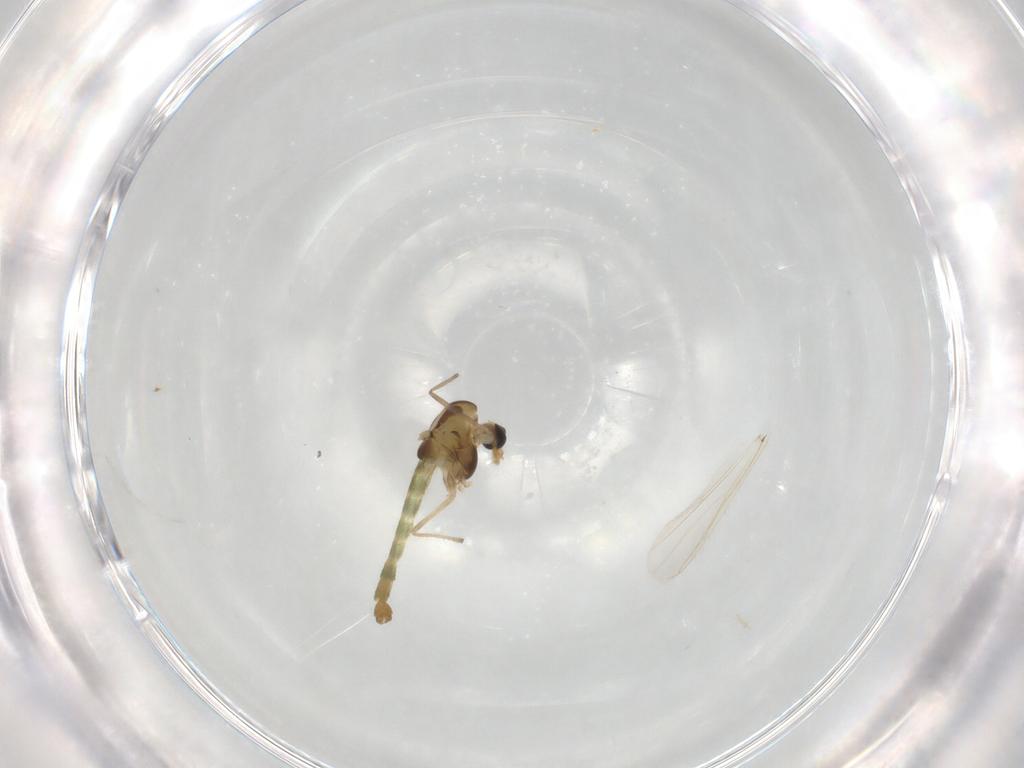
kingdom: Animalia
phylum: Arthropoda
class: Insecta
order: Diptera
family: Chironomidae
